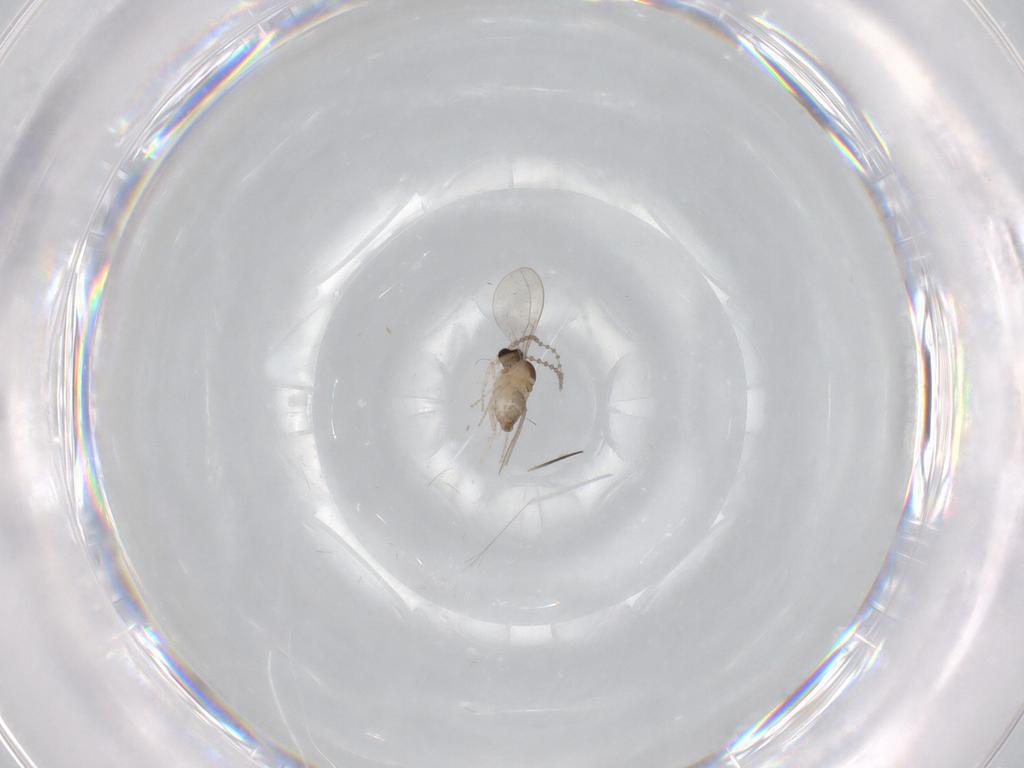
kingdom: Animalia
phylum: Arthropoda
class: Insecta
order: Diptera
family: Cecidomyiidae
